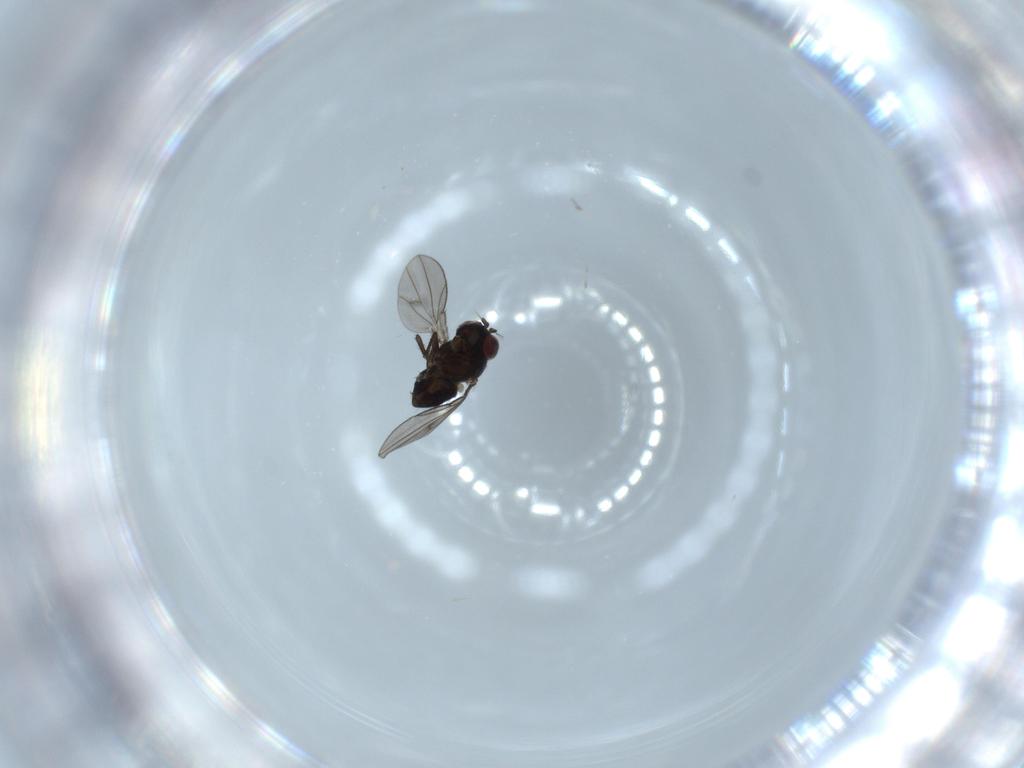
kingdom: Animalia
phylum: Arthropoda
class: Insecta
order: Diptera
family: Ephydridae
